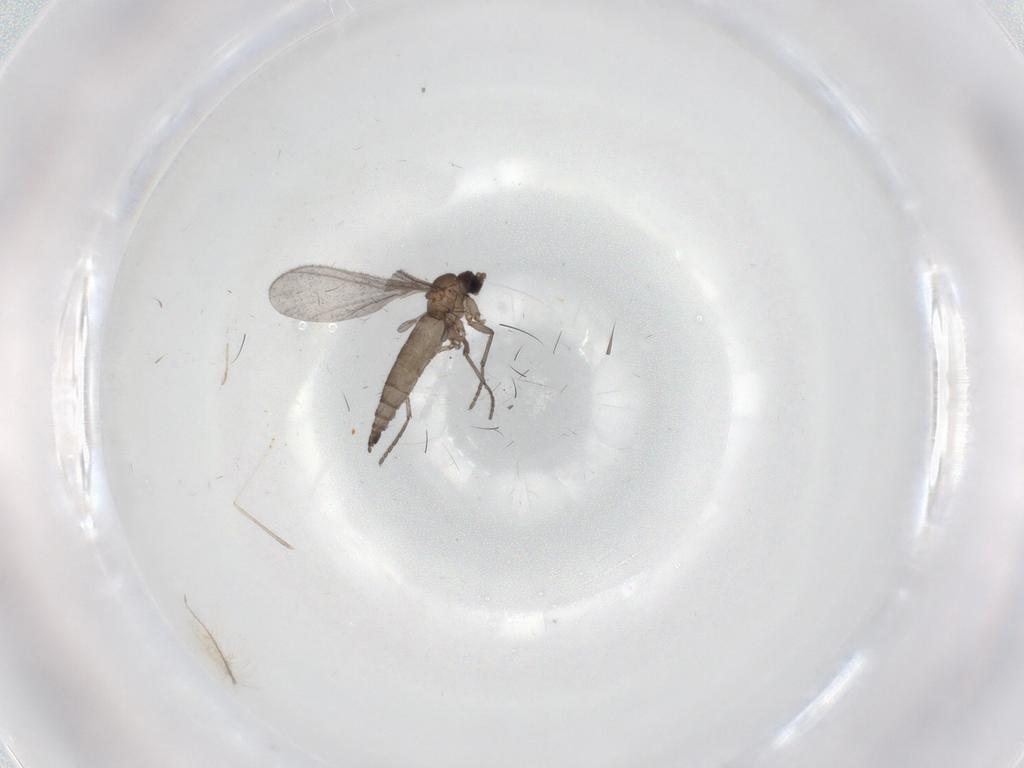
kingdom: Animalia
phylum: Arthropoda
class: Insecta
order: Diptera
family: Sciaridae
